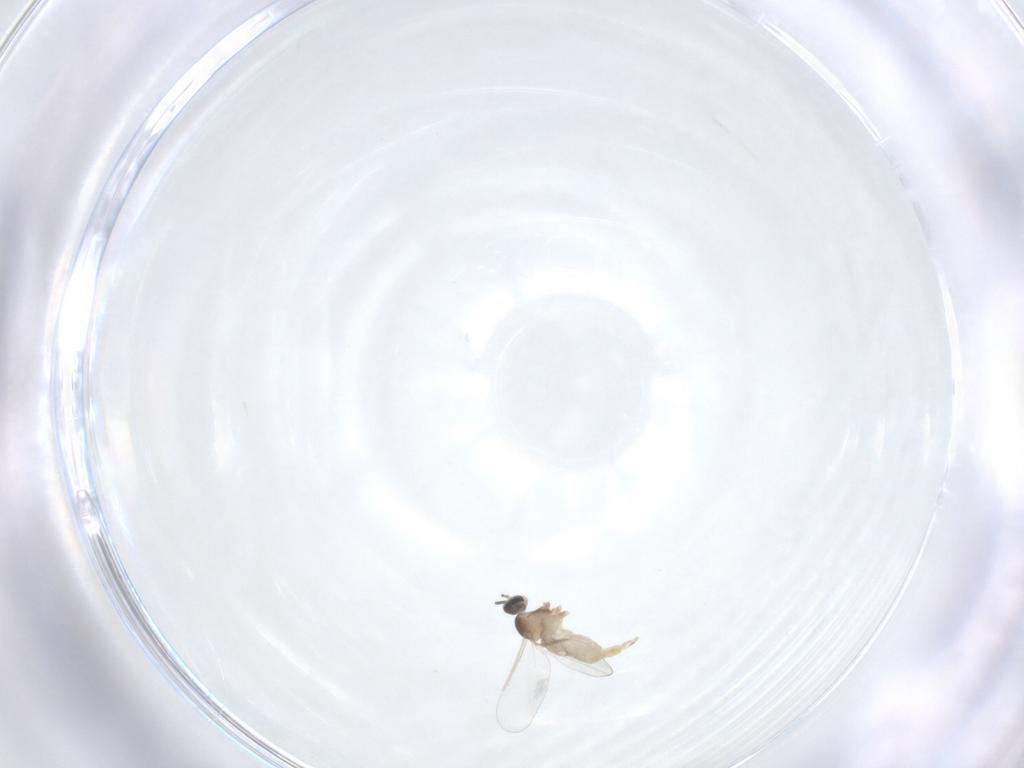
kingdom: Animalia
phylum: Arthropoda
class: Insecta
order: Diptera
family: Cecidomyiidae
